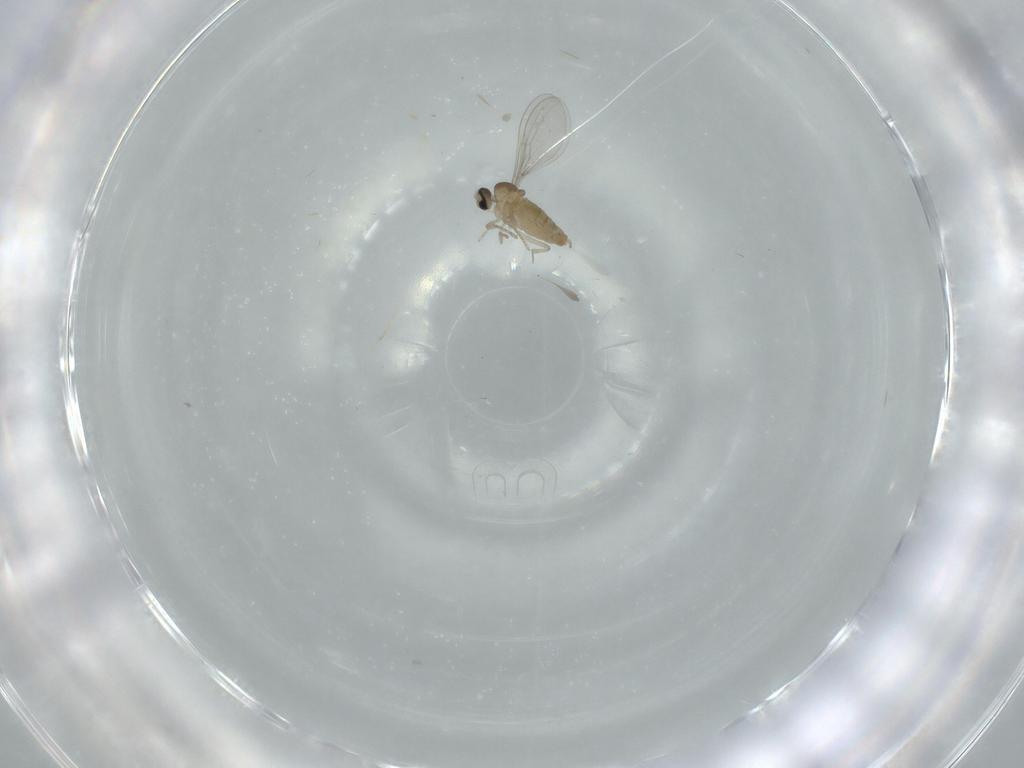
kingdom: Animalia
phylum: Arthropoda
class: Insecta
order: Diptera
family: Cecidomyiidae
